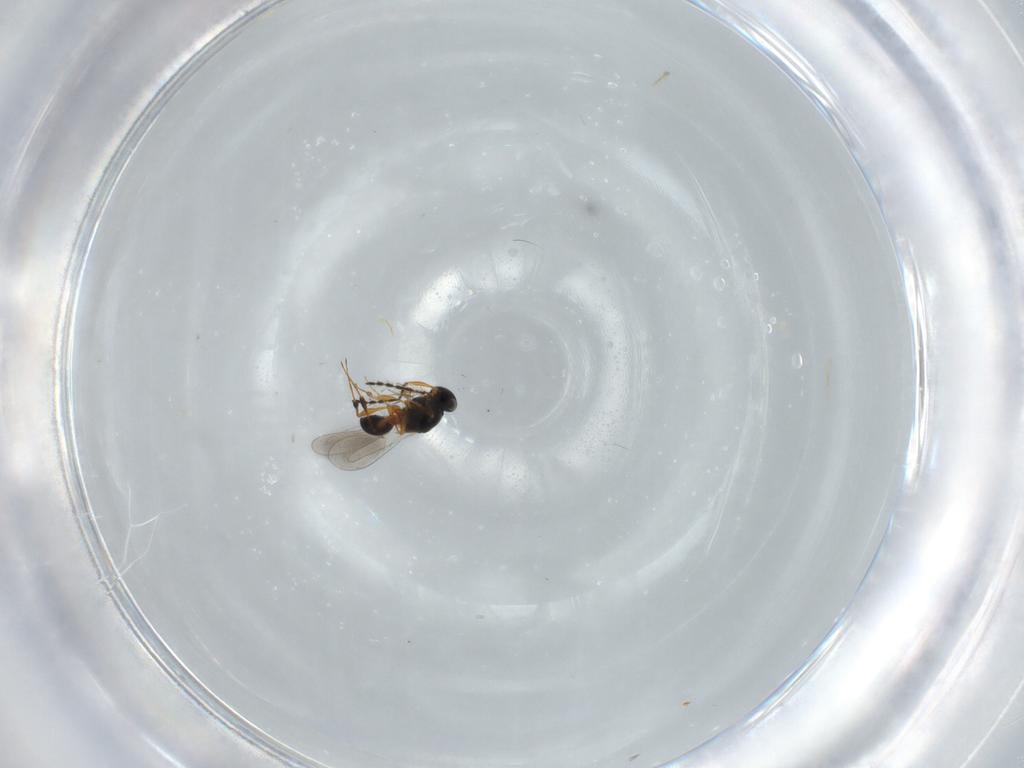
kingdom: Animalia
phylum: Arthropoda
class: Insecta
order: Hymenoptera
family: Platygastridae
